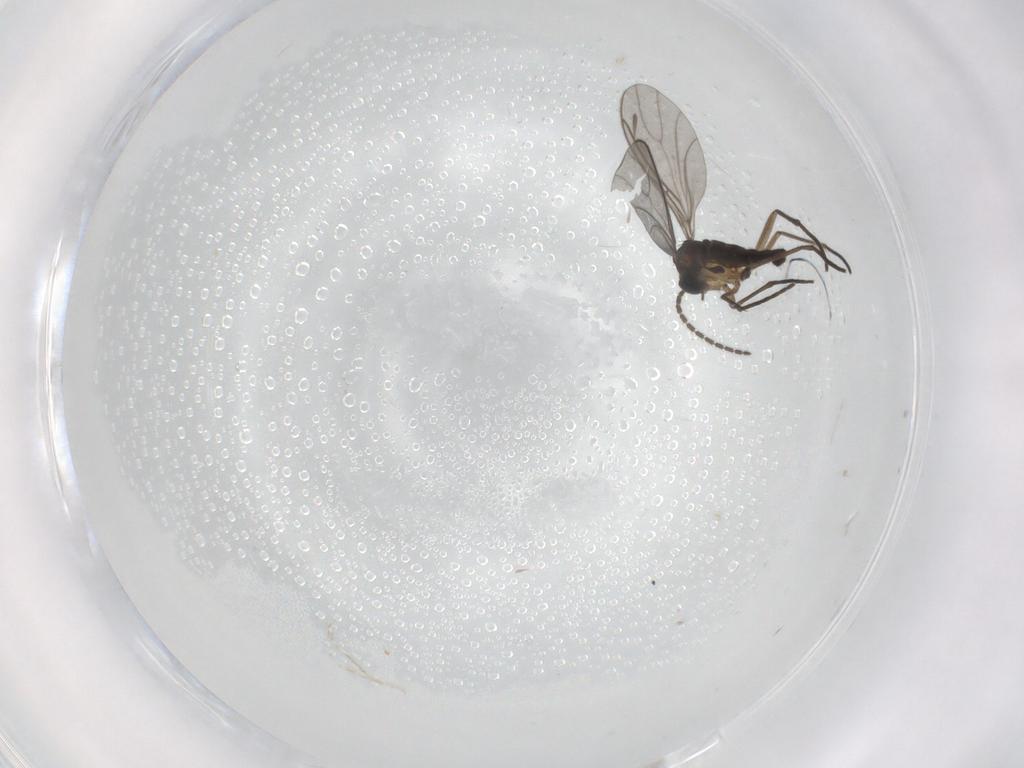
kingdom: Animalia
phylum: Arthropoda
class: Insecta
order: Diptera
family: Sciaridae
